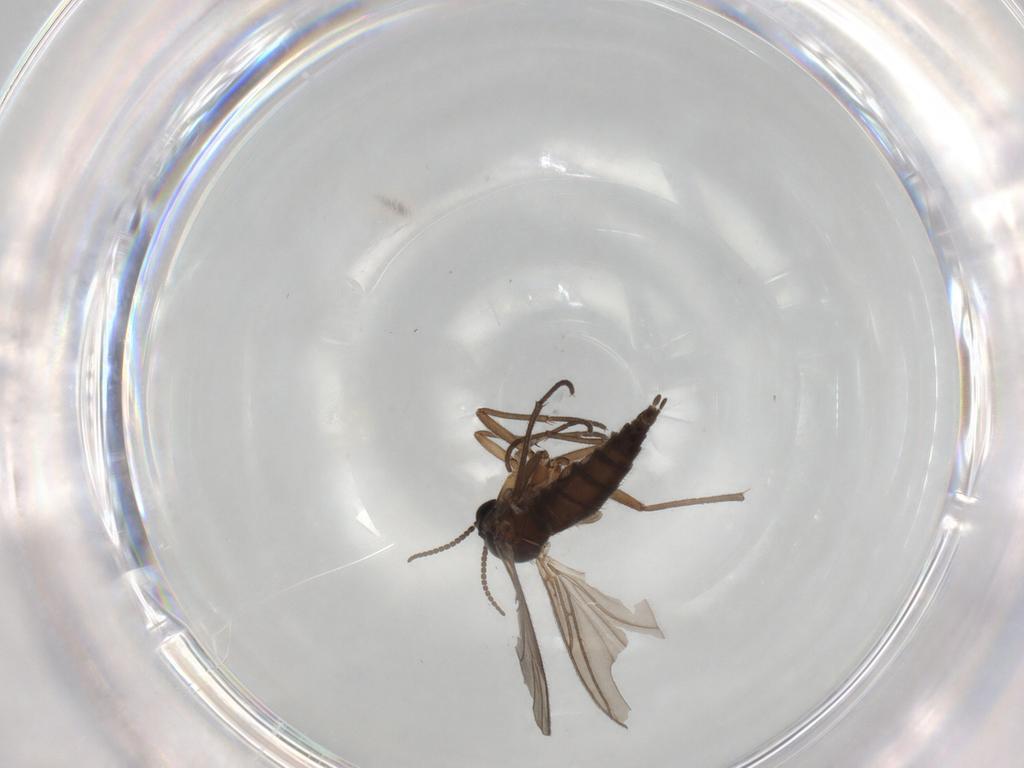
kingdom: Animalia
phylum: Arthropoda
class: Insecta
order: Diptera
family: Sciaridae
